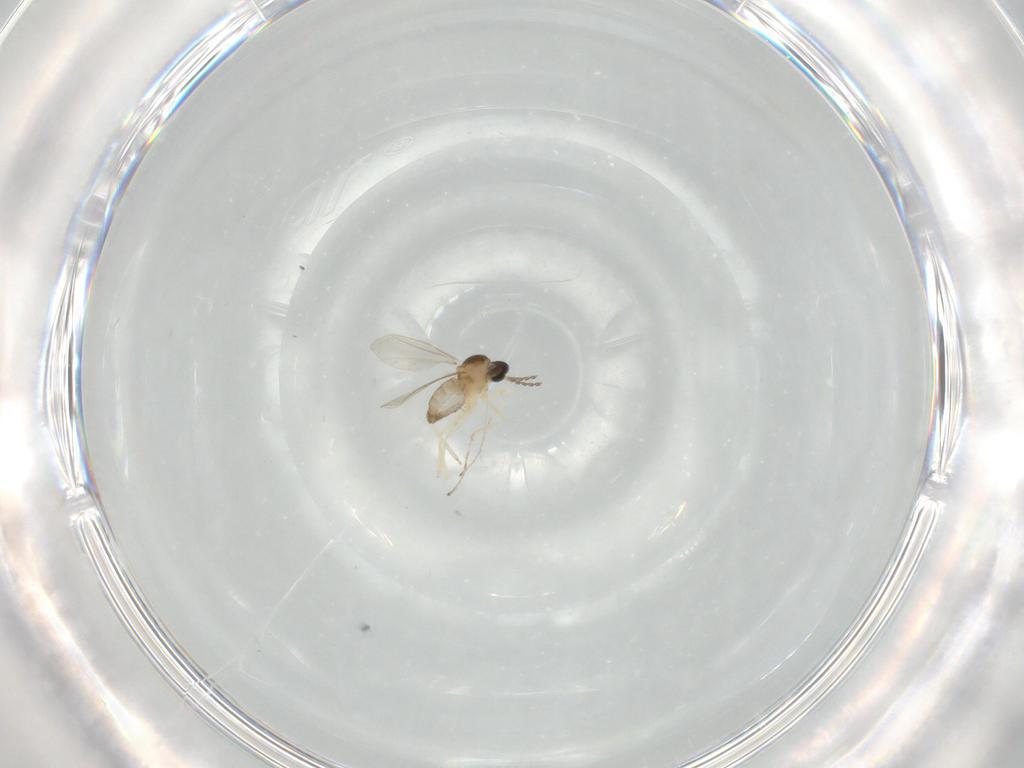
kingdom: Animalia
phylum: Arthropoda
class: Insecta
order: Diptera
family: Cecidomyiidae
